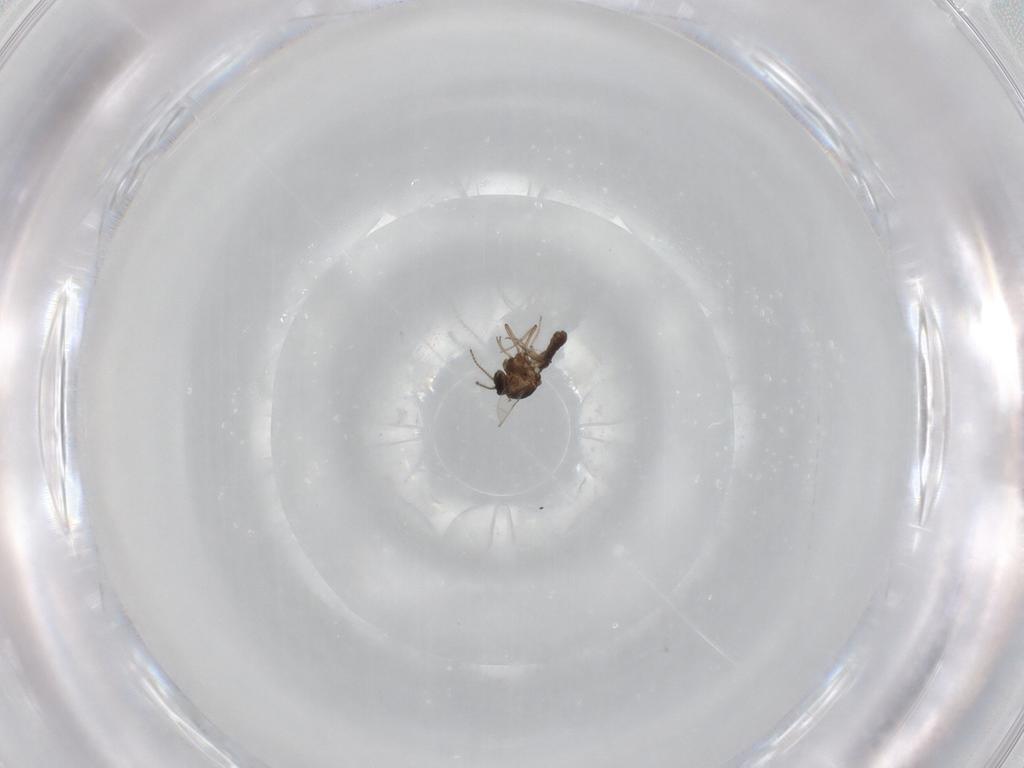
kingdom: Animalia
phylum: Arthropoda
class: Insecta
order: Diptera
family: Ceratopogonidae
